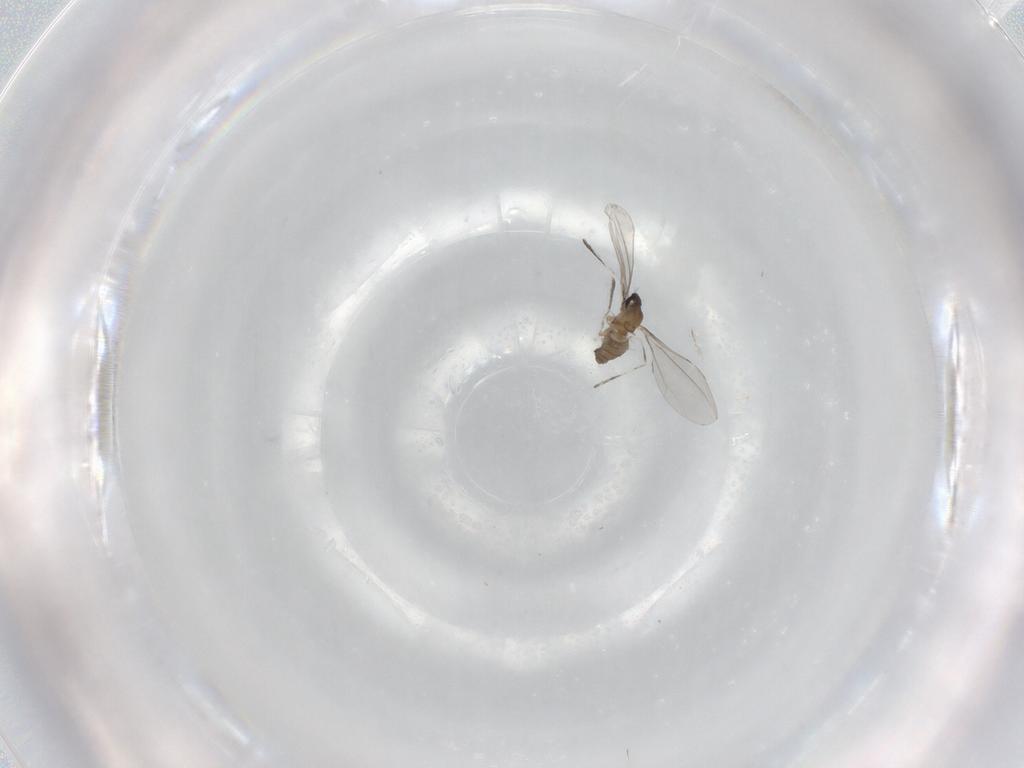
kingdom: Animalia
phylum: Arthropoda
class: Insecta
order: Diptera
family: Cecidomyiidae
